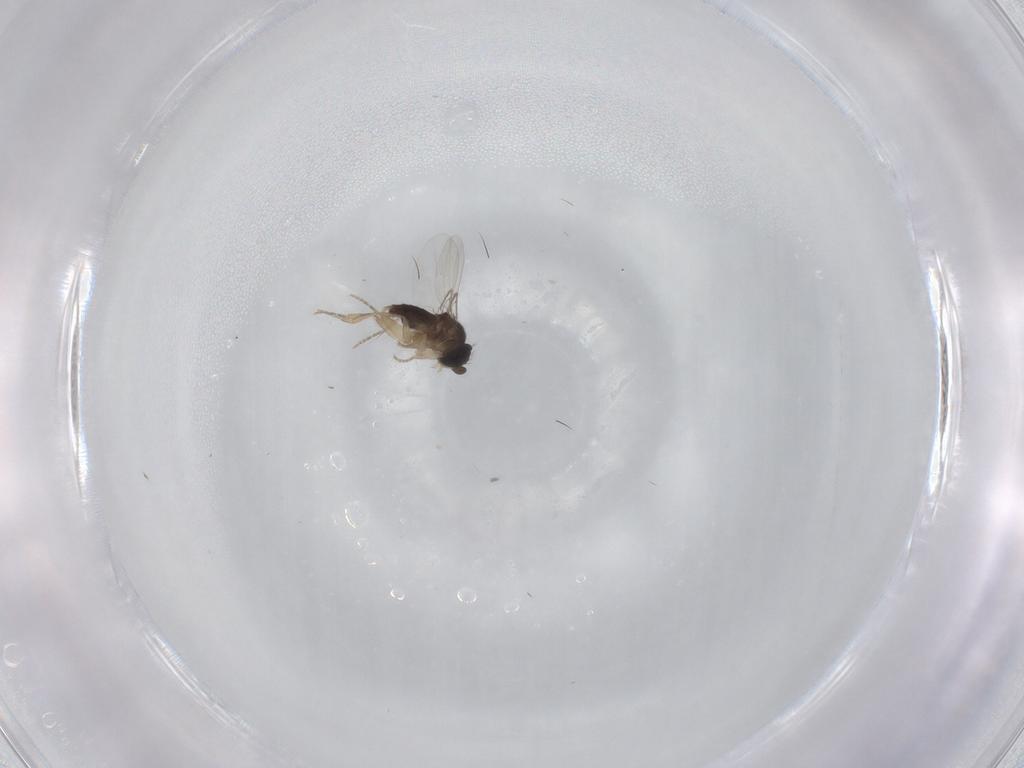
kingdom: Animalia
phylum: Arthropoda
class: Insecta
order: Diptera
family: Phoridae
